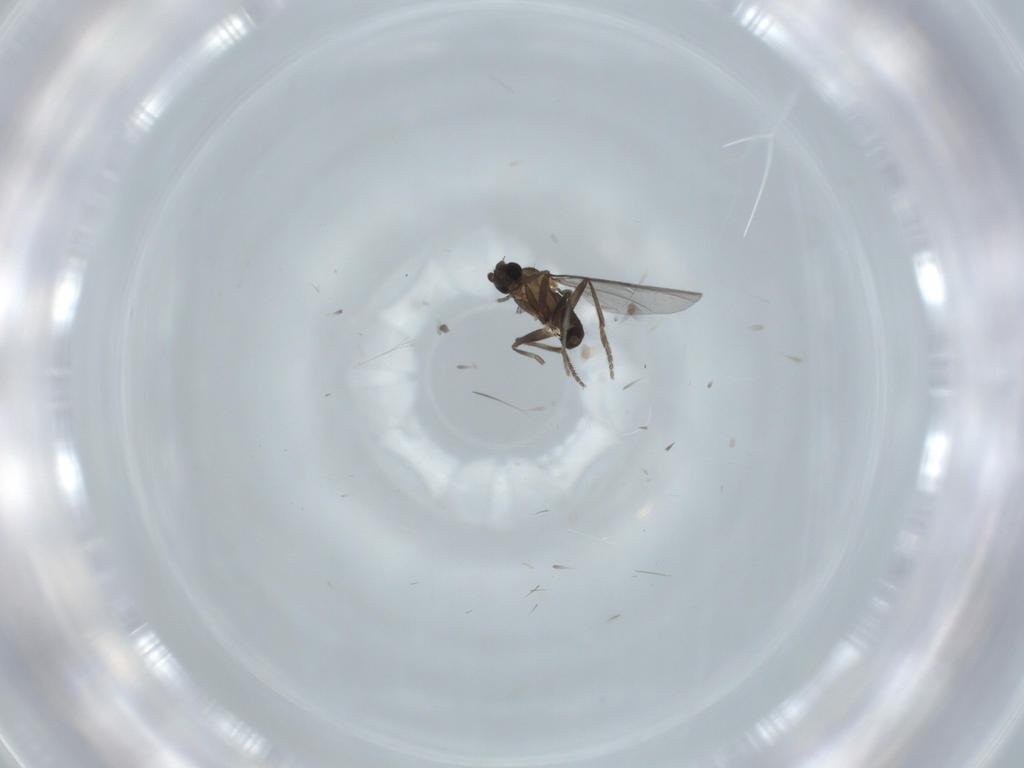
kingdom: Animalia
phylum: Arthropoda
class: Insecta
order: Diptera
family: Phoridae
